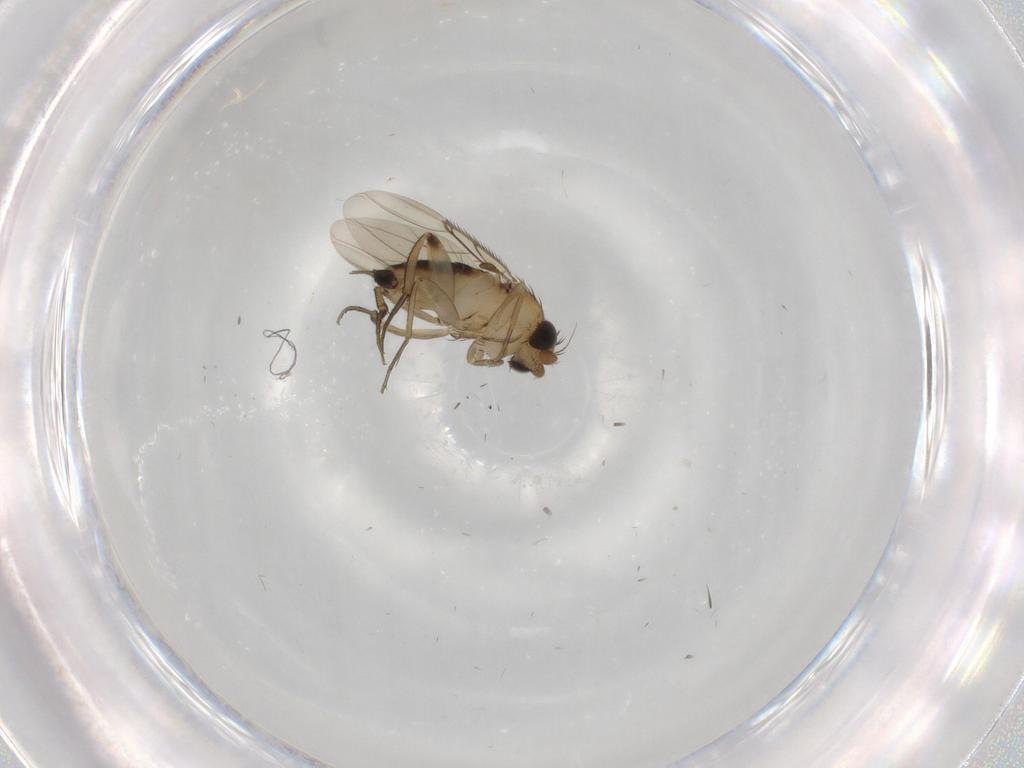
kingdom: Animalia
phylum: Arthropoda
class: Insecta
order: Diptera
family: Phoridae
